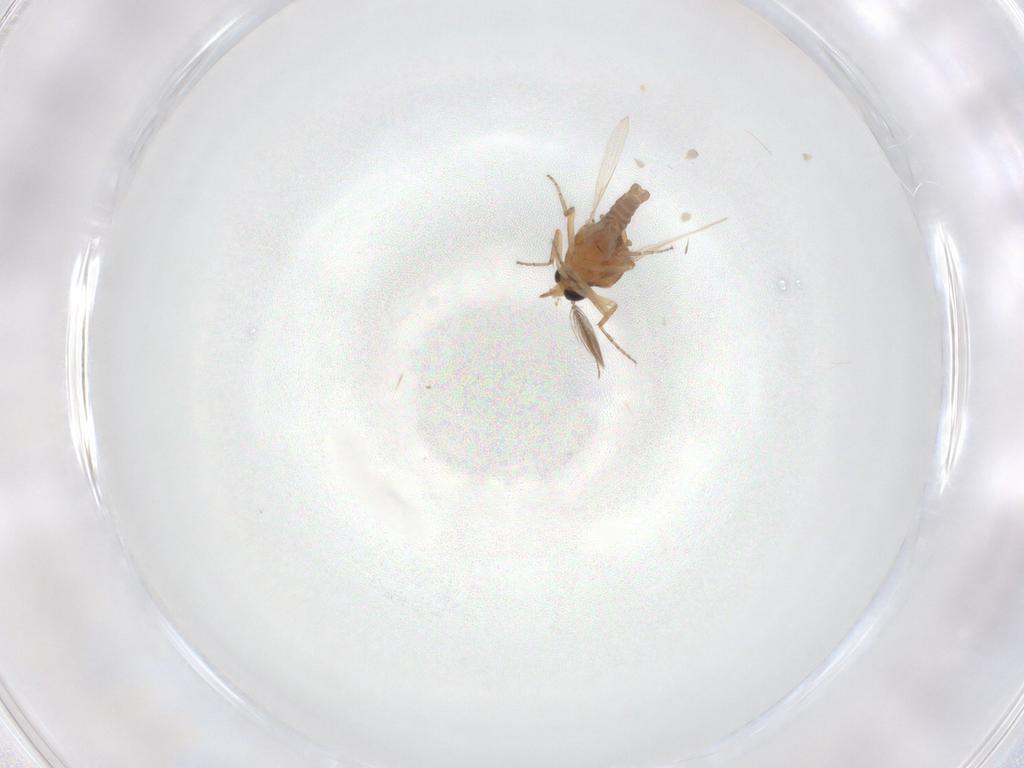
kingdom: Animalia
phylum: Arthropoda
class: Insecta
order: Diptera
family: Ceratopogonidae
